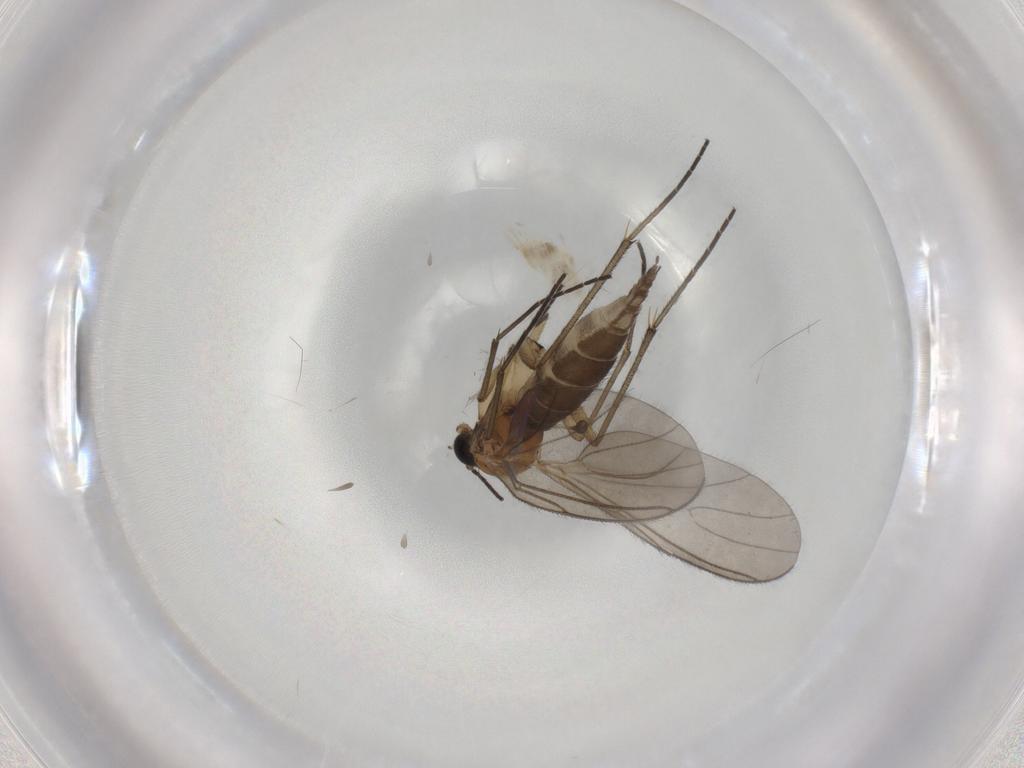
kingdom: Animalia
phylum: Arthropoda
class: Insecta
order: Diptera
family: Sciaridae
